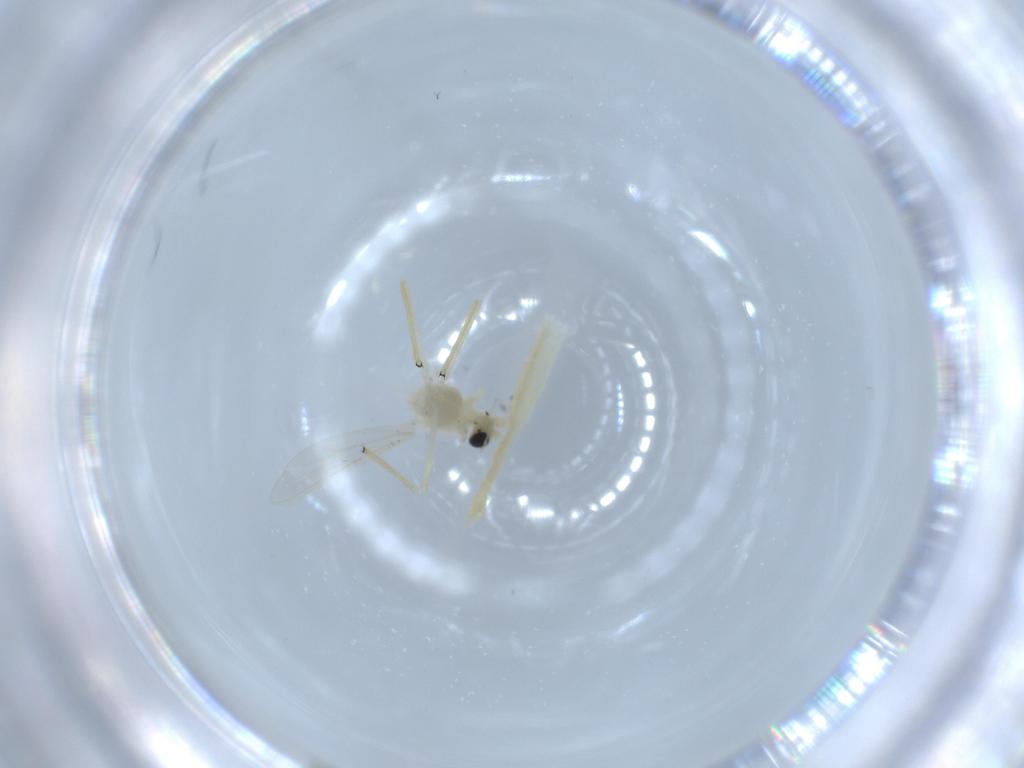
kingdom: Animalia
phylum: Arthropoda
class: Insecta
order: Diptera
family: Chironomidae
